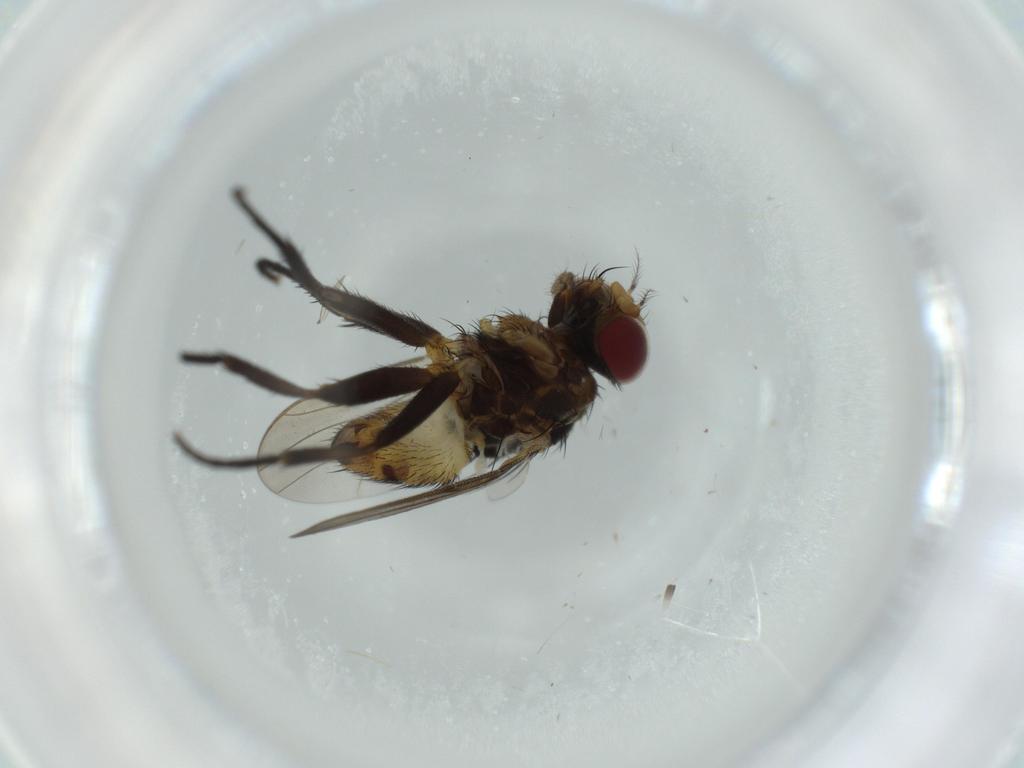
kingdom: Animalia
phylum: Arthropoda
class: Insecta
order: Diptera
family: Anthomyiidae
